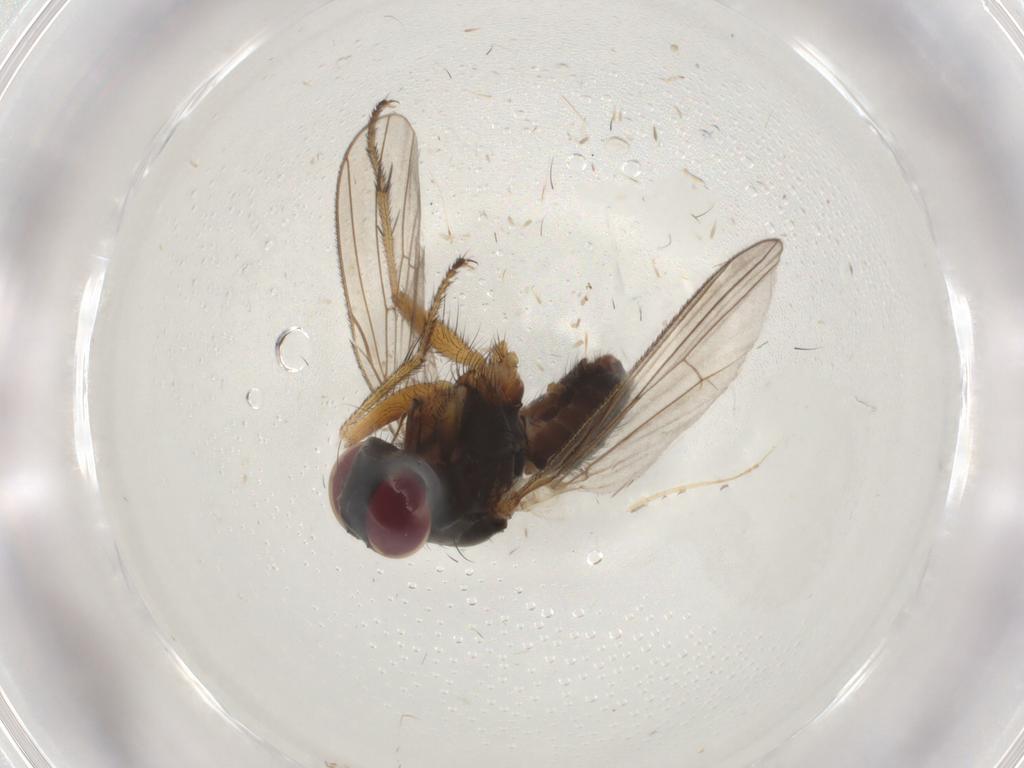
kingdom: Animalia
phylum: Arthropoda
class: Insecta
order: Diptera
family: Muscidae
